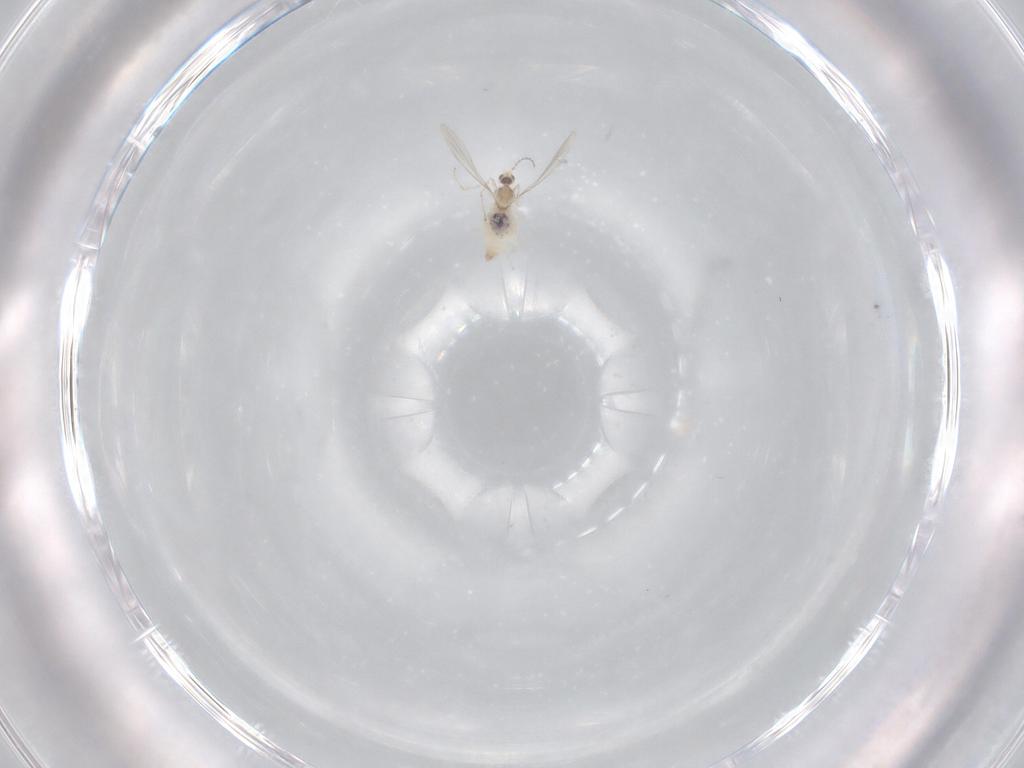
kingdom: Animalia
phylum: Arthropoda
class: Insecta
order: Diptera
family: Cecidomyiidae
